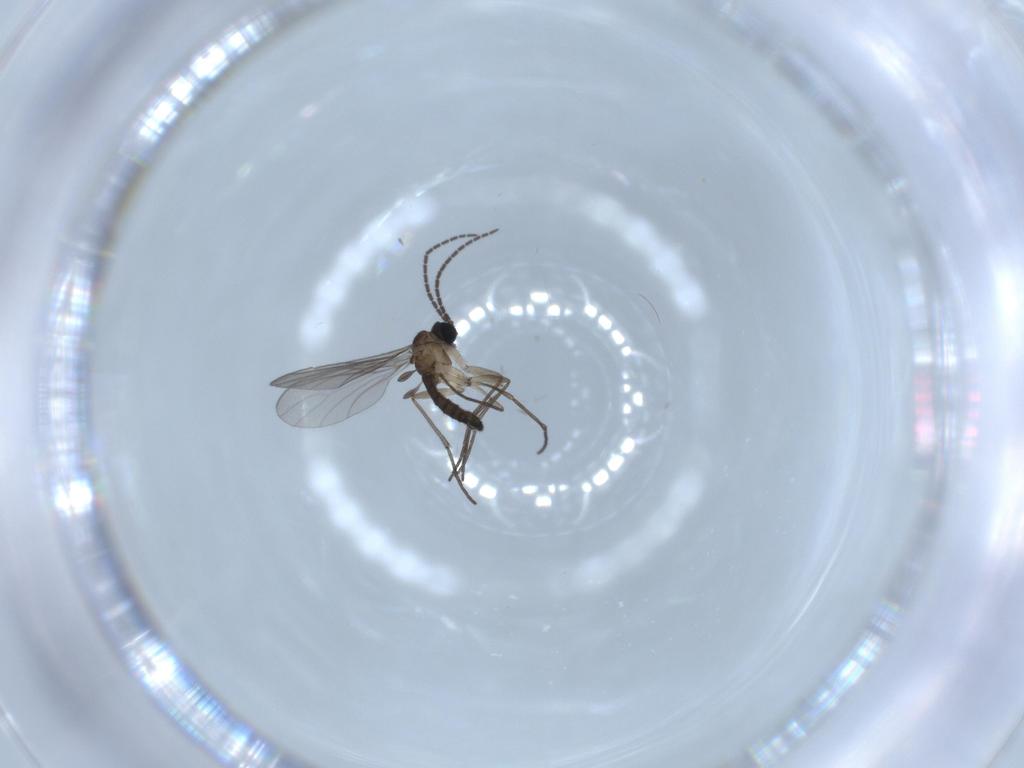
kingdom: Animalia
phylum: Arthropoda
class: Insecta
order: Diptera
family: Sciaridae
